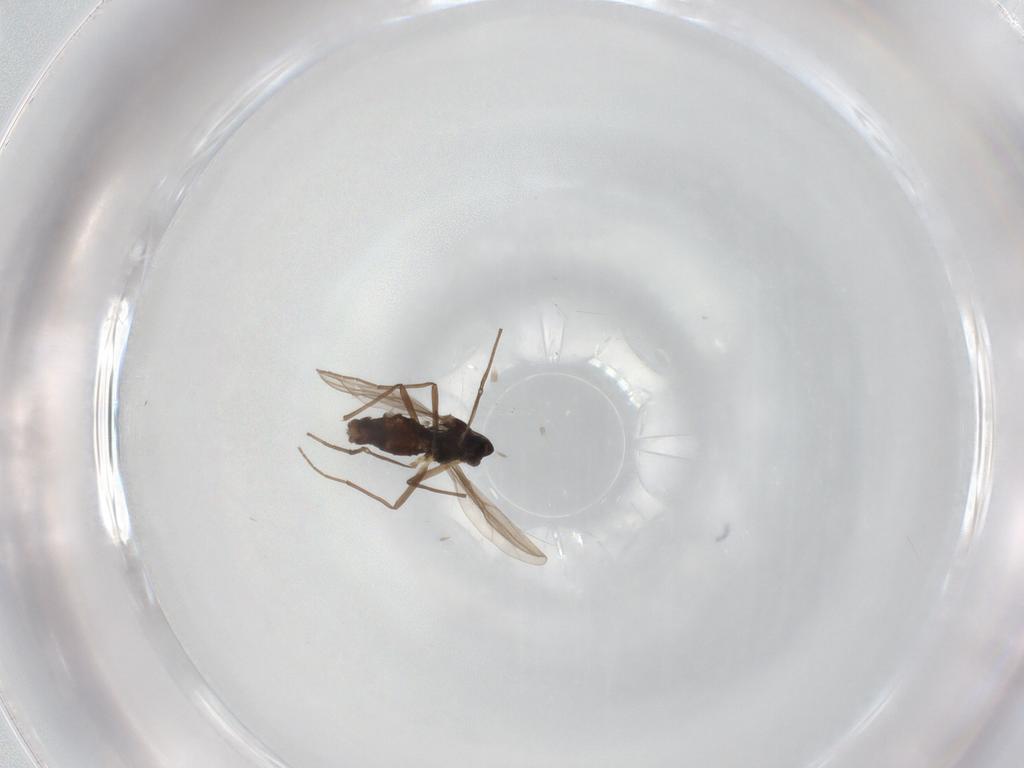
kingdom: Animalia
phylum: Arthropoda
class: Insecta
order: Diptera
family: Chironomidae
